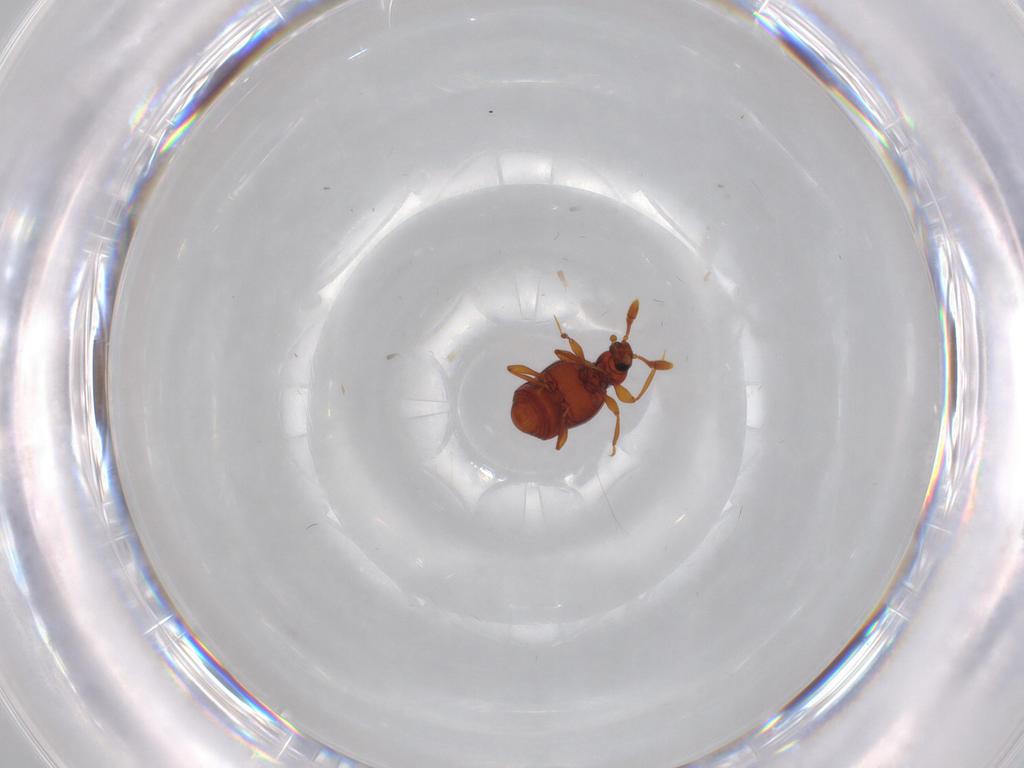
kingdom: Animalia
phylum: Arthropoda
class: Insecta
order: Coleoptera
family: Staphylinidae
